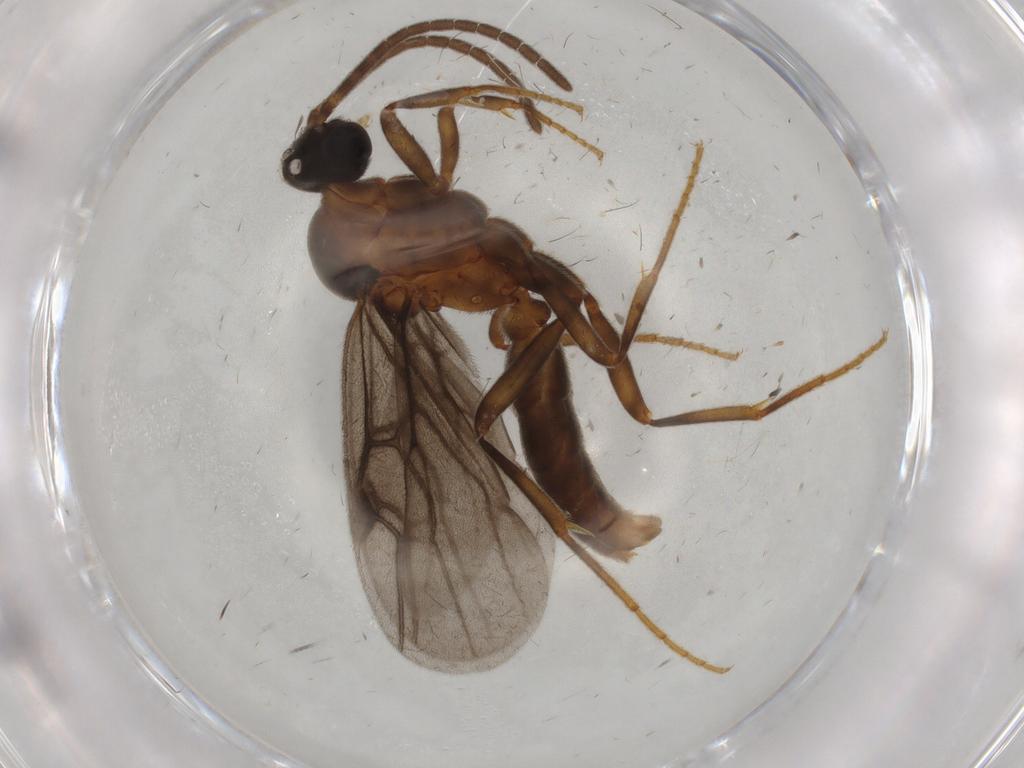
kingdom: Animalia
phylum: Arthropoda
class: Insecta
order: Hymenoptera
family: Formicidae
